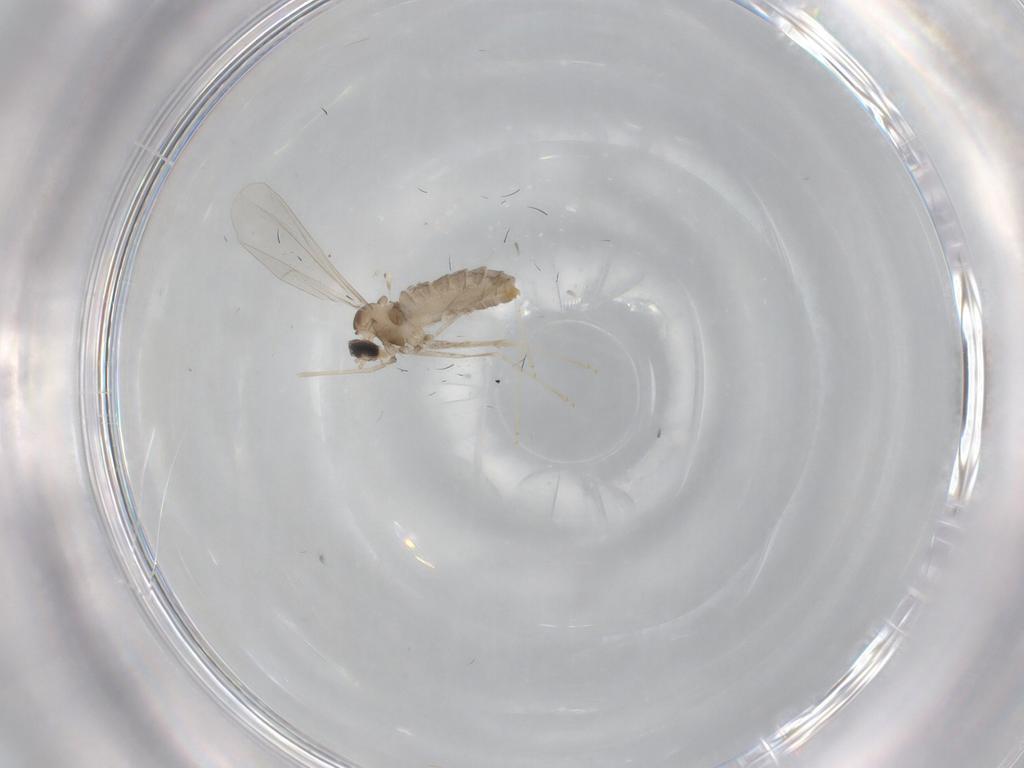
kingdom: Animalia
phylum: Arthropoda
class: Insecta
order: Diptera
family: Cecidomyiidae
